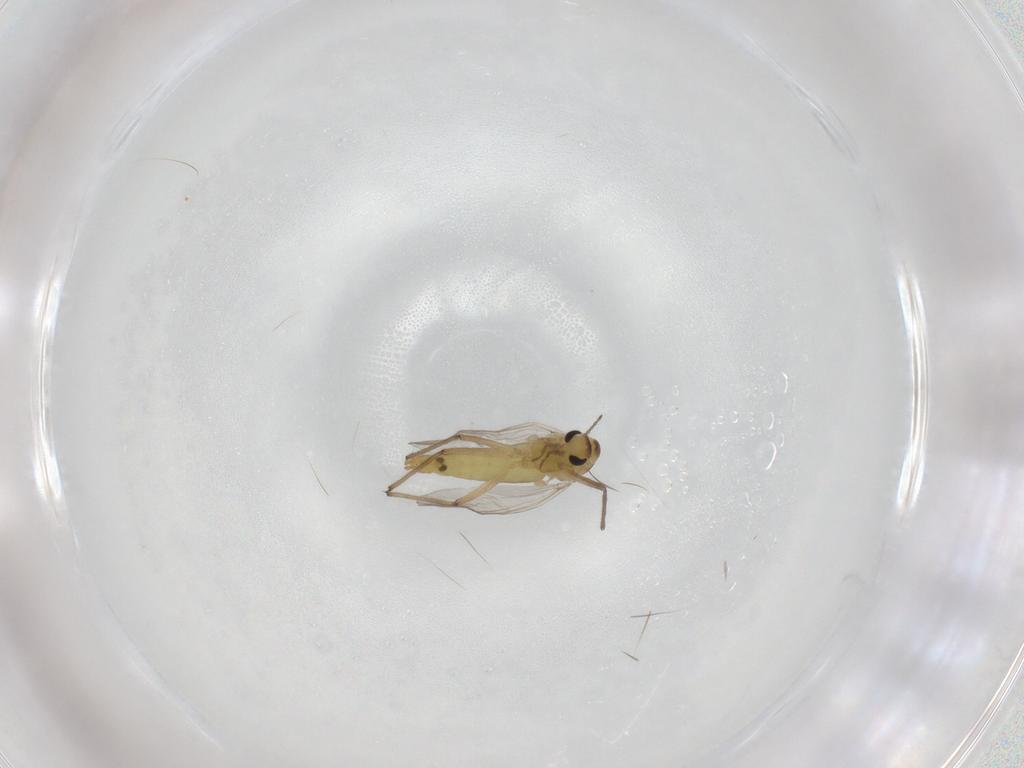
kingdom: Animalia
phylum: Arthropoda
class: Insecta
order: Diptera
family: Chironomidae
